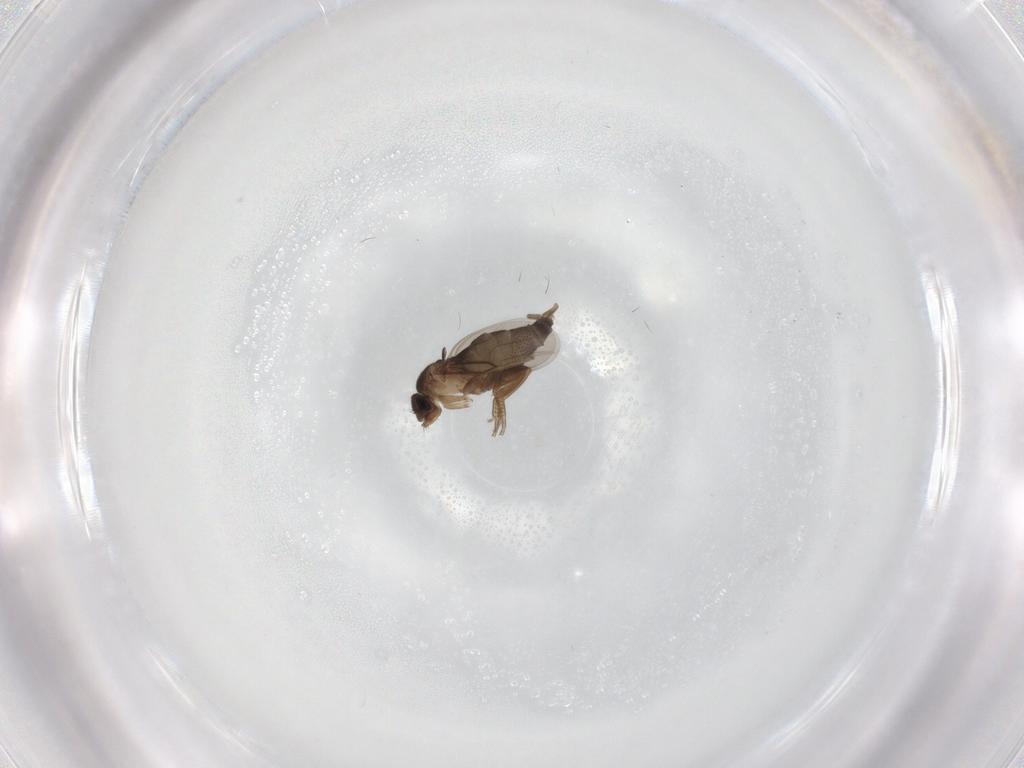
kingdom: Animalia
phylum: Arthropoda
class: Insecta
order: Diptera
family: Phoridae
